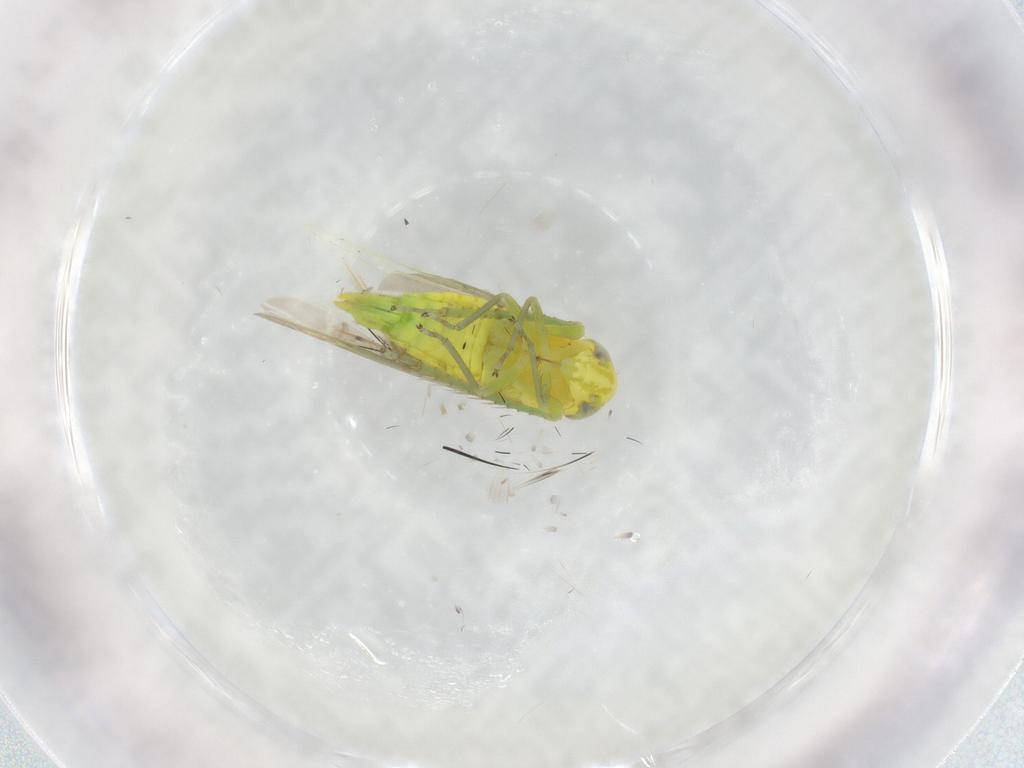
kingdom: Animalia
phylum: Arthropoda
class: Insecta
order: Hemiptera
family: Cicadellidae
